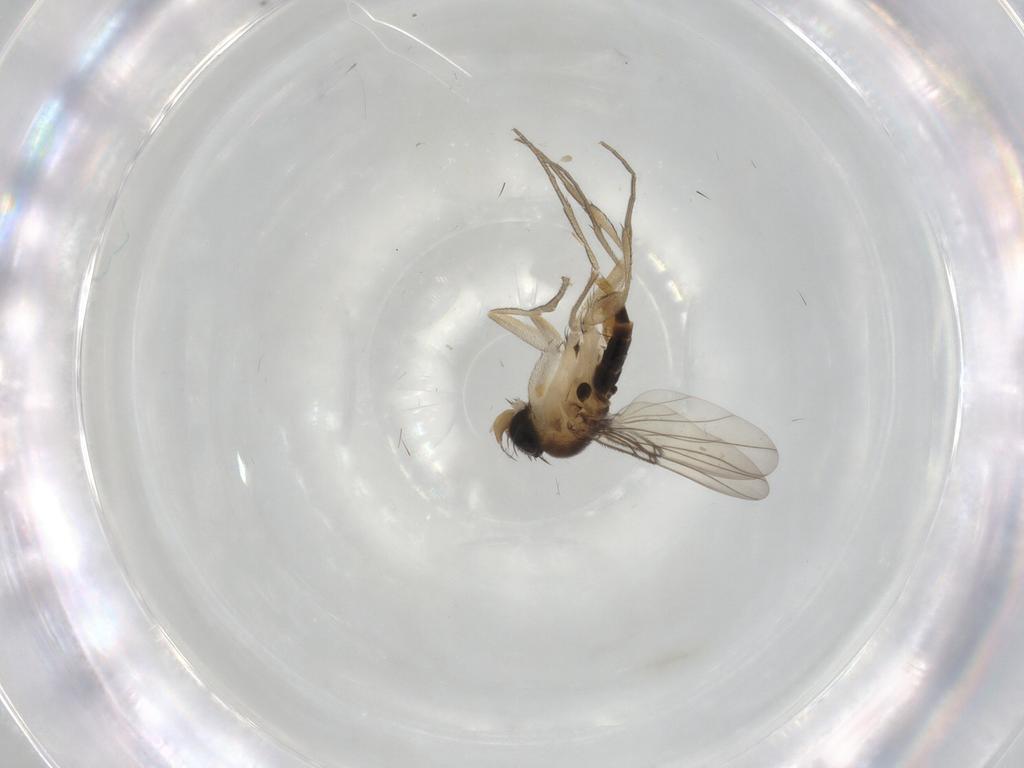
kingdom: Animalia
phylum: Arthropoda
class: Insecta
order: Diptera
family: Phoridae
